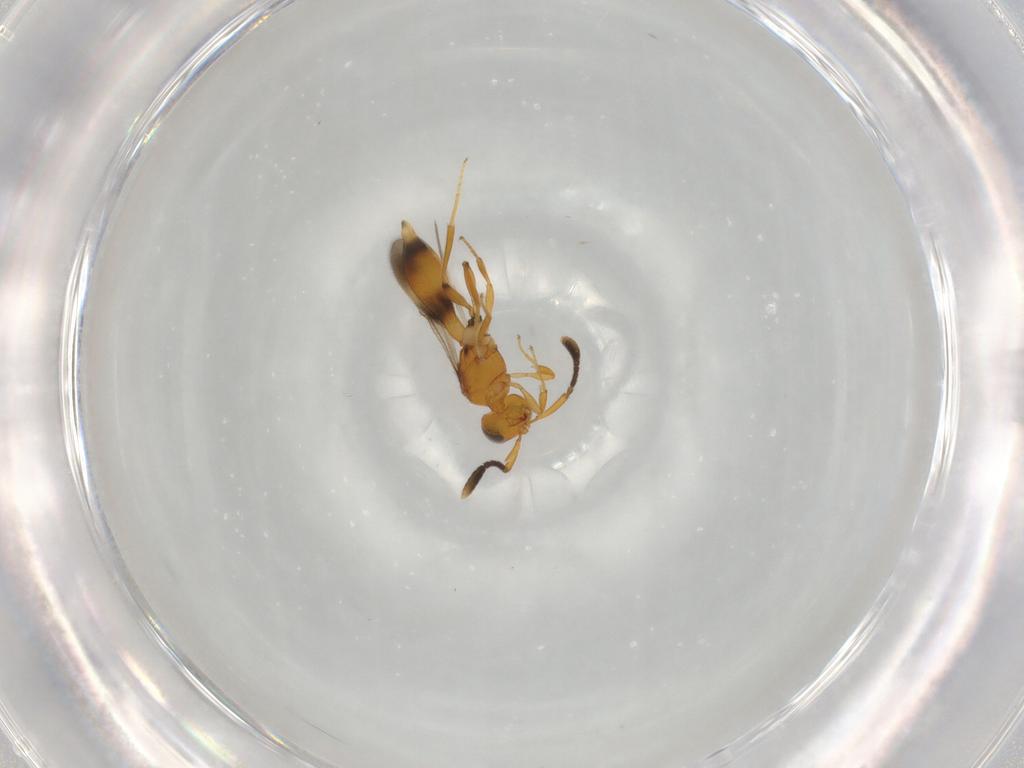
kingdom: Animalia
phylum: Arthropoda
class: Insecta
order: Hymenoptera
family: Scelionidae
